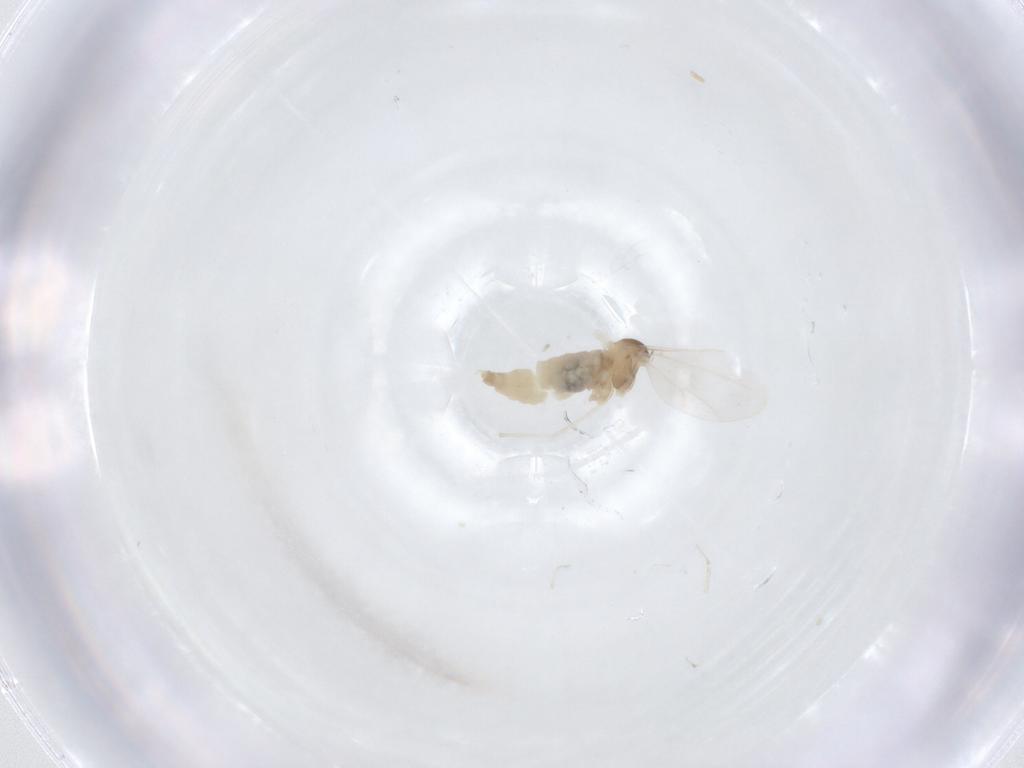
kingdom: Animalia
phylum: Arthropoda
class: Insecta
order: Diptera
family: Cecidomyiidae
